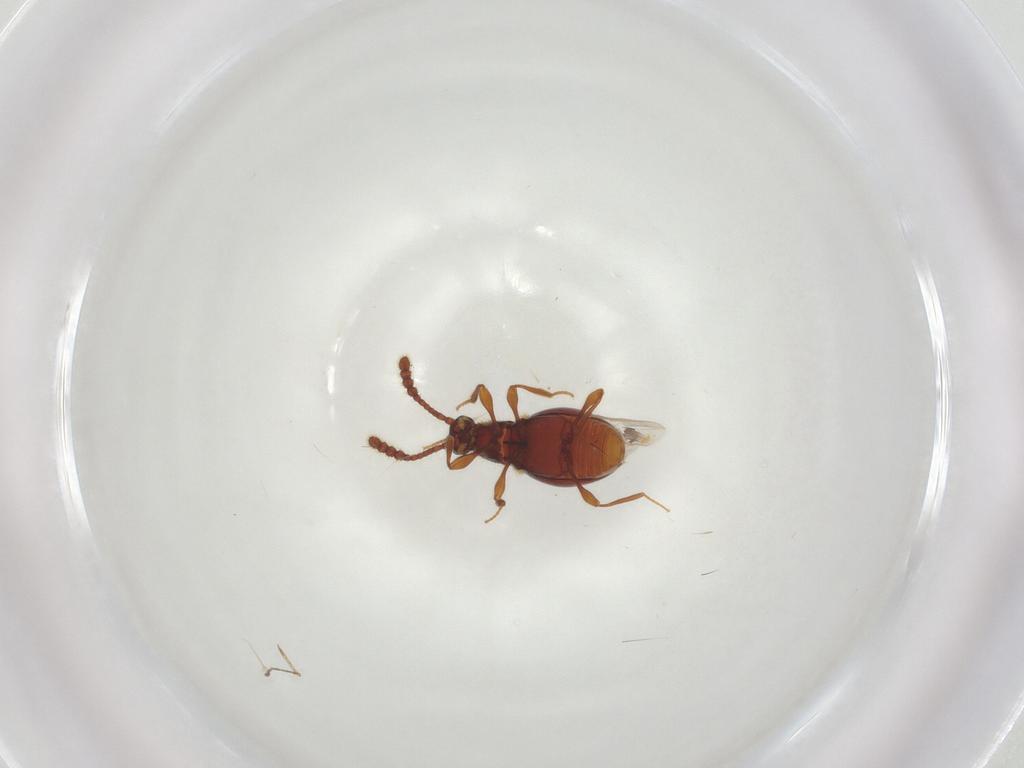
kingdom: Animalia
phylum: Arthropoda
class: Insecta
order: Coleoptera
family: Staphylinidae
